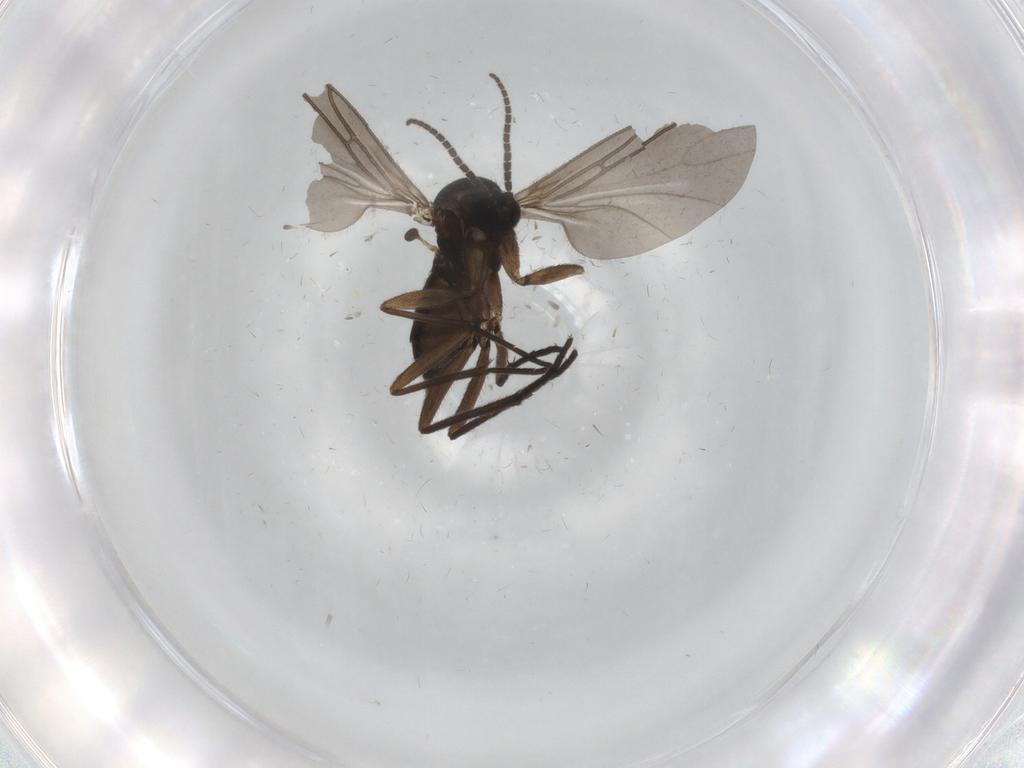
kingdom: Animalia
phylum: Arthropoda
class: Insecta
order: Diptera
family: Sciaridae
